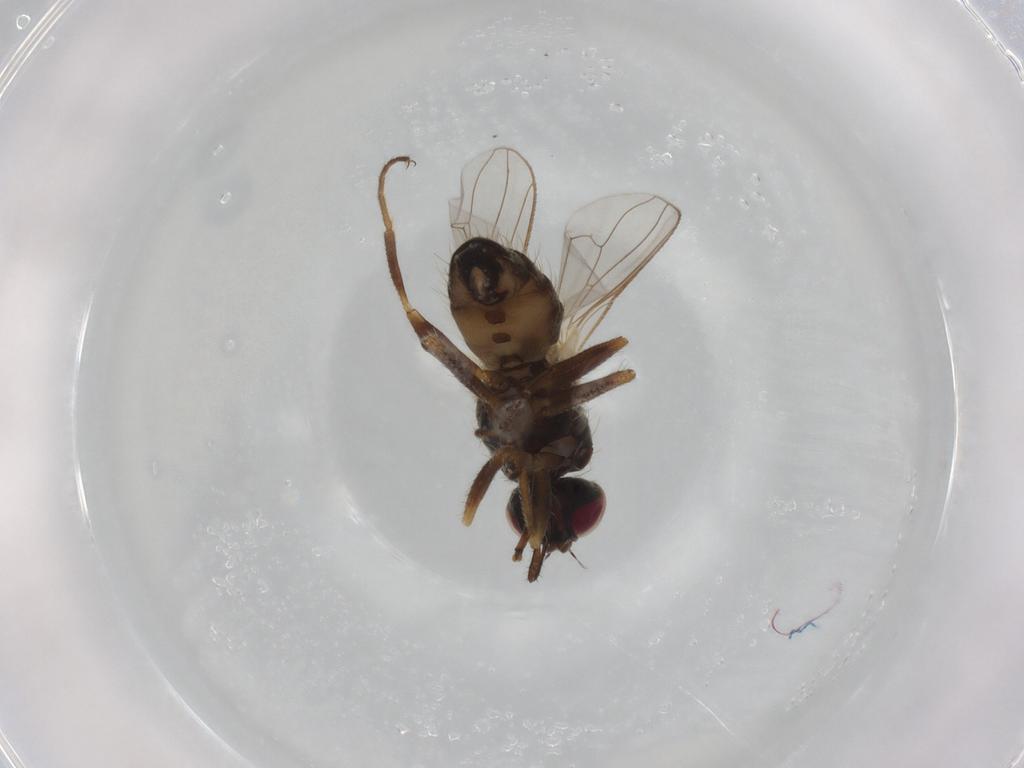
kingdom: Animalia
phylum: Arthropoda
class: Insecta
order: Diptera
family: Muscidae
